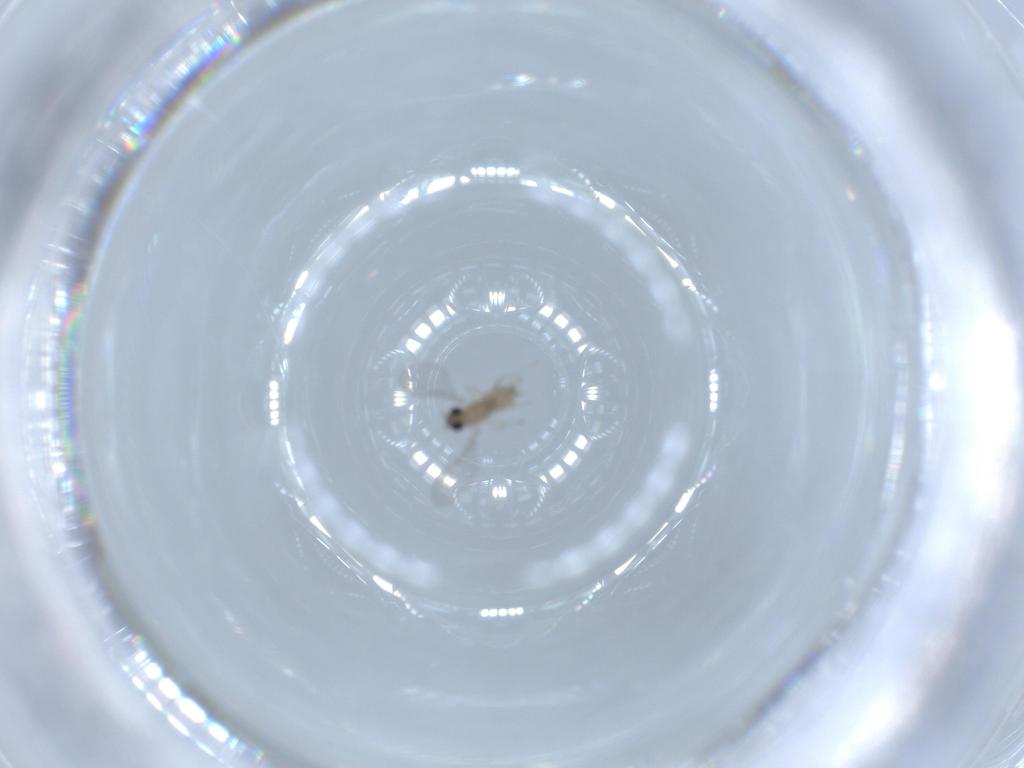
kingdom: Animalia
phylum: Arthropoda
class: Insecta
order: Diptera
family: Cecidomyiidae
